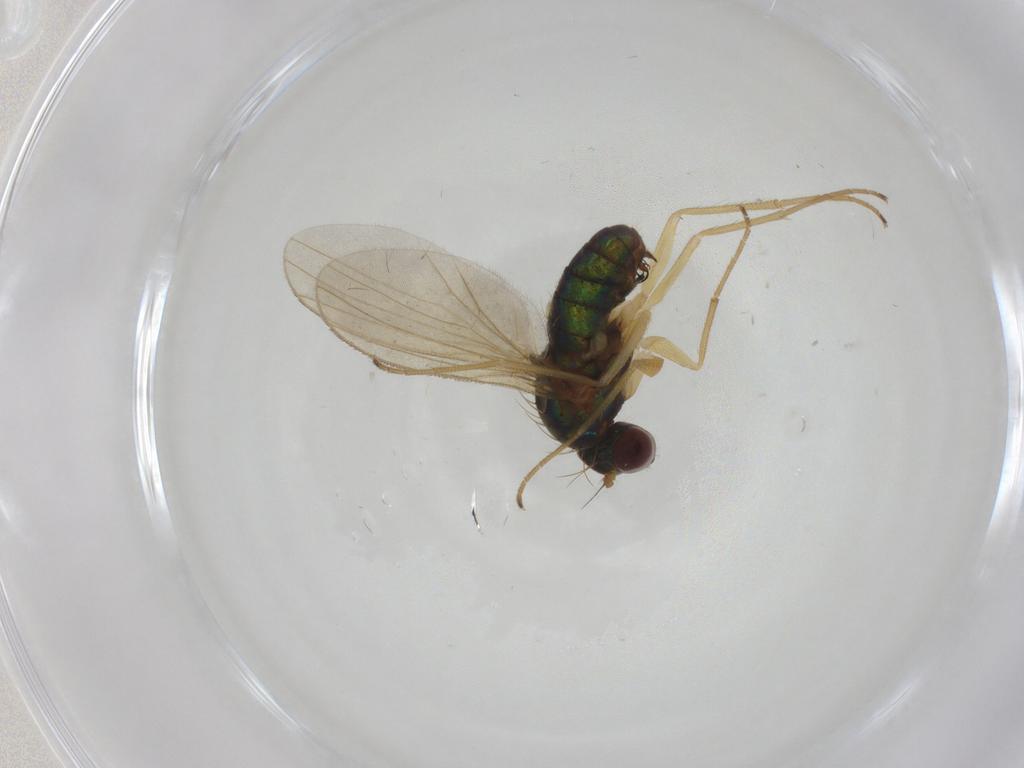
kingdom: Animalia
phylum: Arthropoda
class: Insecta
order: Diptera
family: Dolichopodidae
